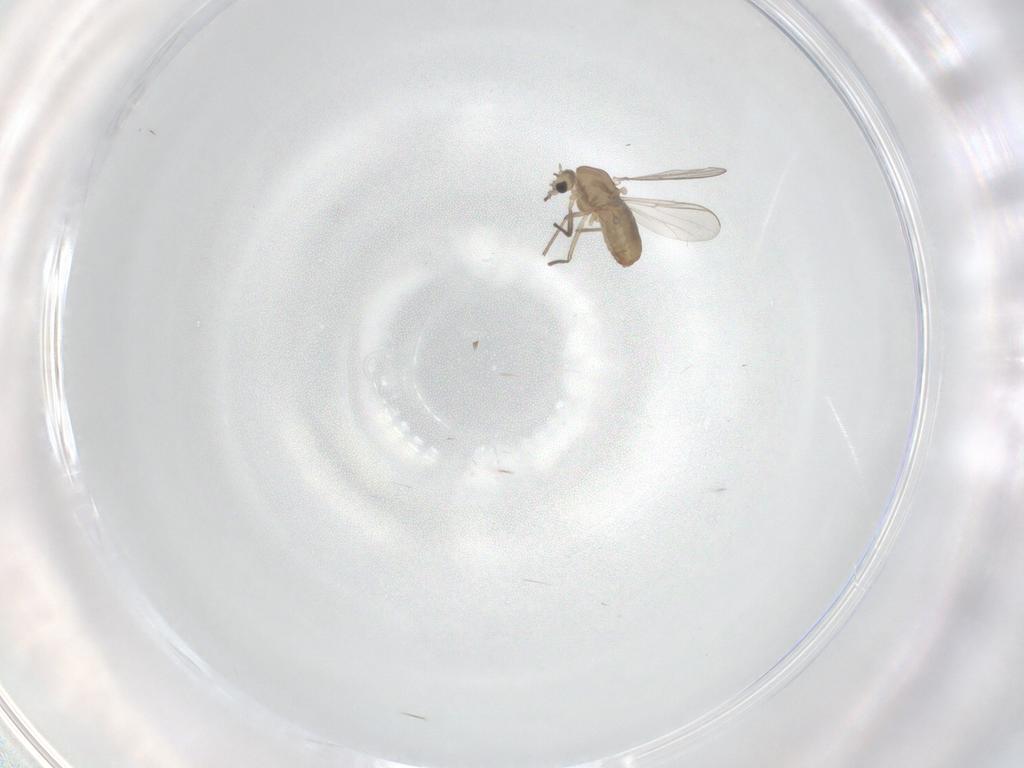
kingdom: Animalia
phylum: Arthropoda
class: Insecta
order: Diptera
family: Chironomidae
